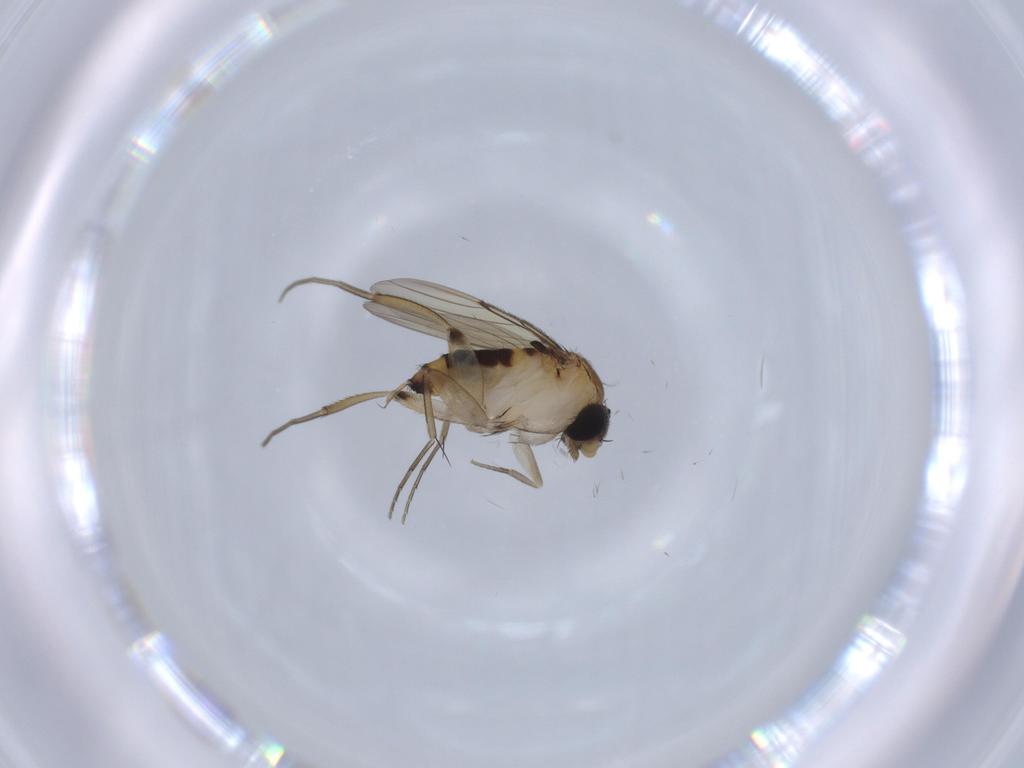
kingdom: Animalia
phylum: Arthropoda
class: Insecta
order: Diptera
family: Phoridae
